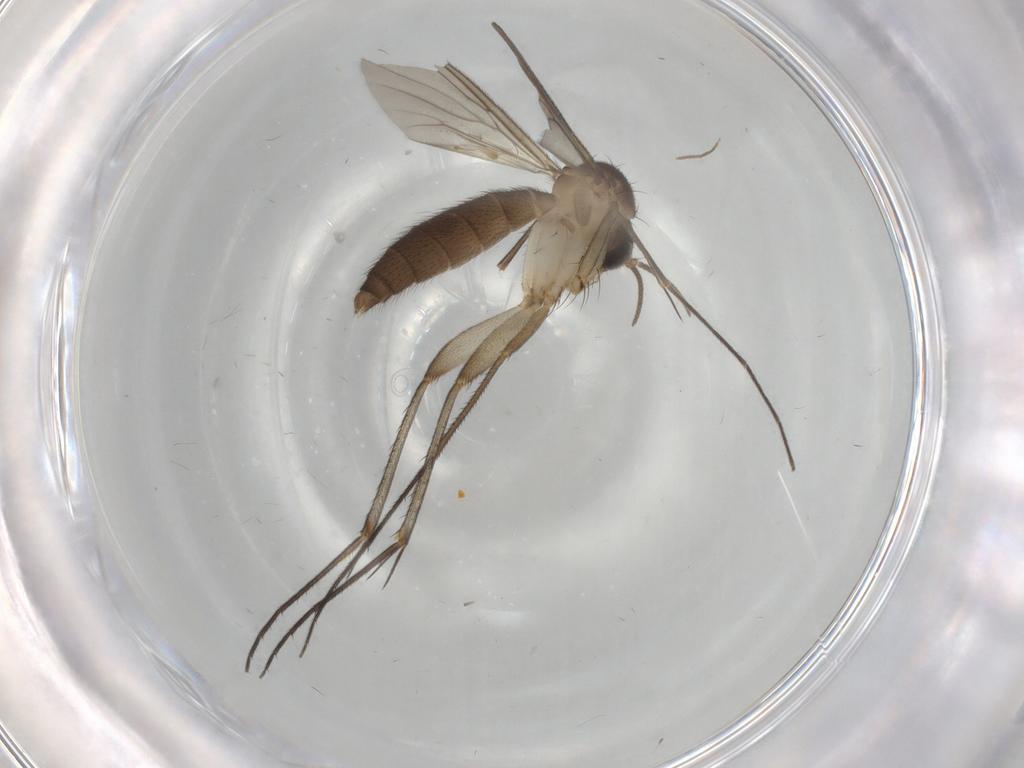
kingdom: Animalia
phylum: Arthropoda
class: Insecta
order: Diptera
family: Mycetophilidae
